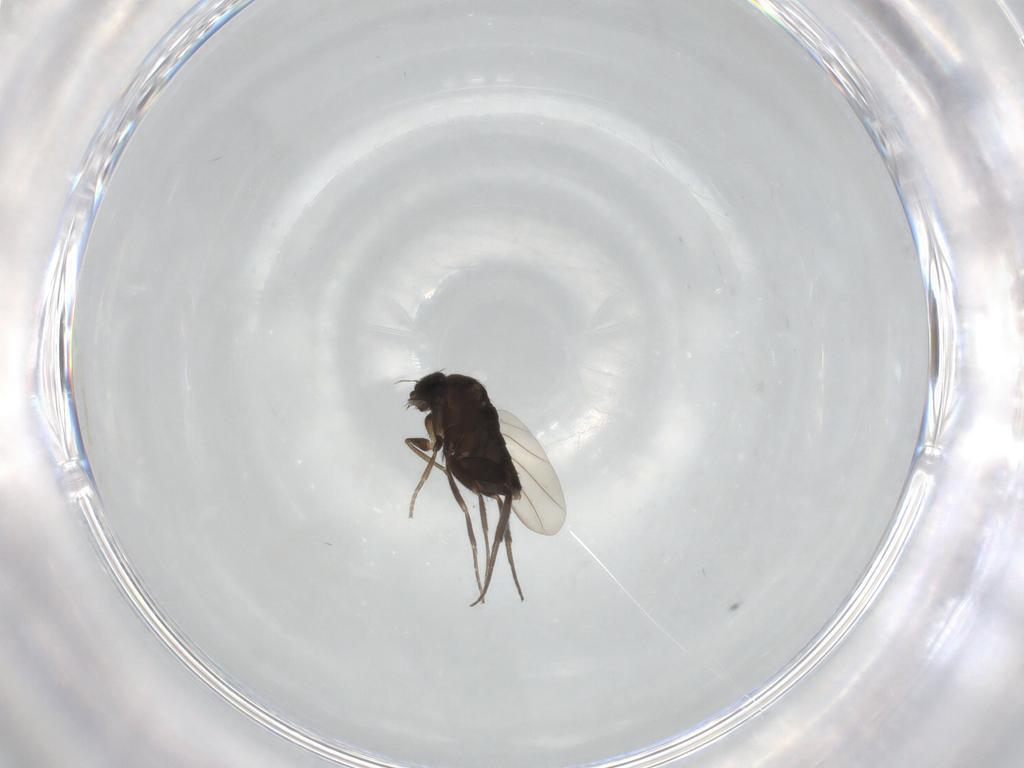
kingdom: Animalia
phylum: Arthropoda
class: Insecta
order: Diptera
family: Phoridae
